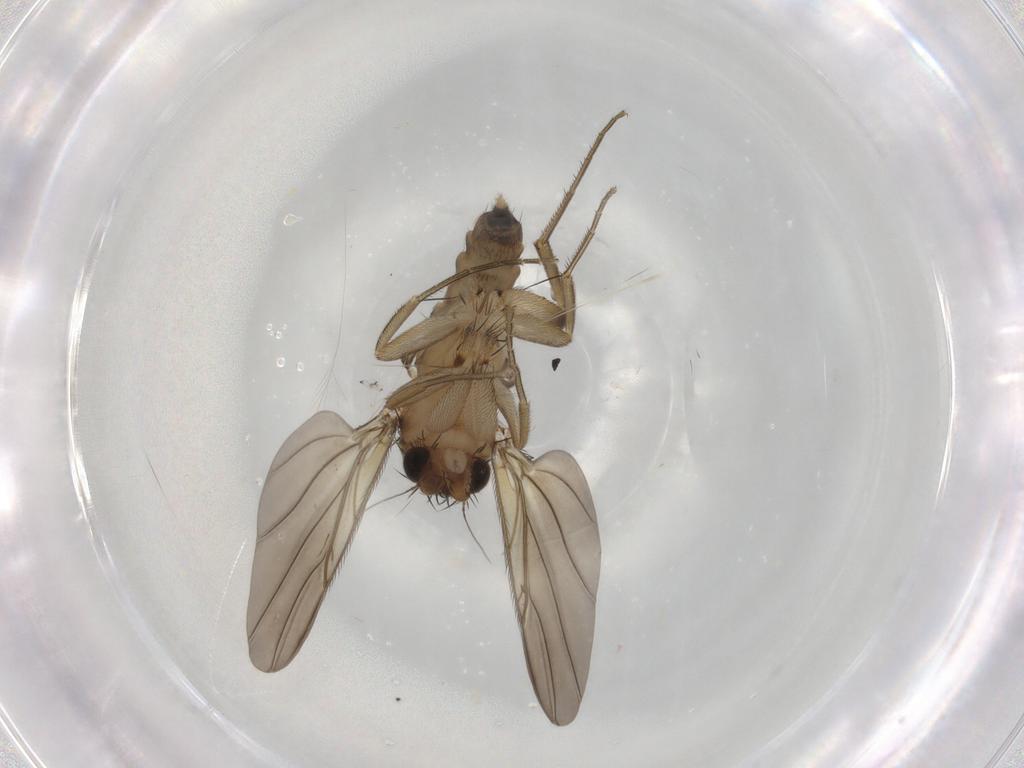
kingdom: Animalia
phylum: Arthropoda
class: Insecta
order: Diptera
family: Phoridae
